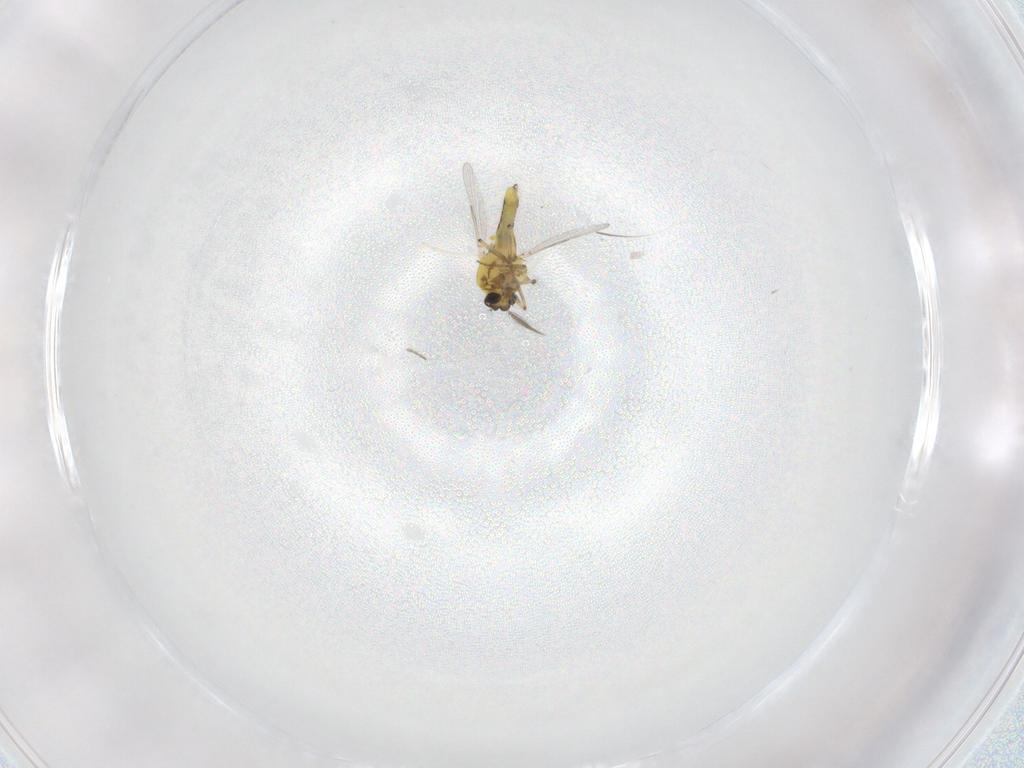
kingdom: Animalia
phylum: Arthropoda
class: Insecta
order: Diptera
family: Ceratopogonidae
